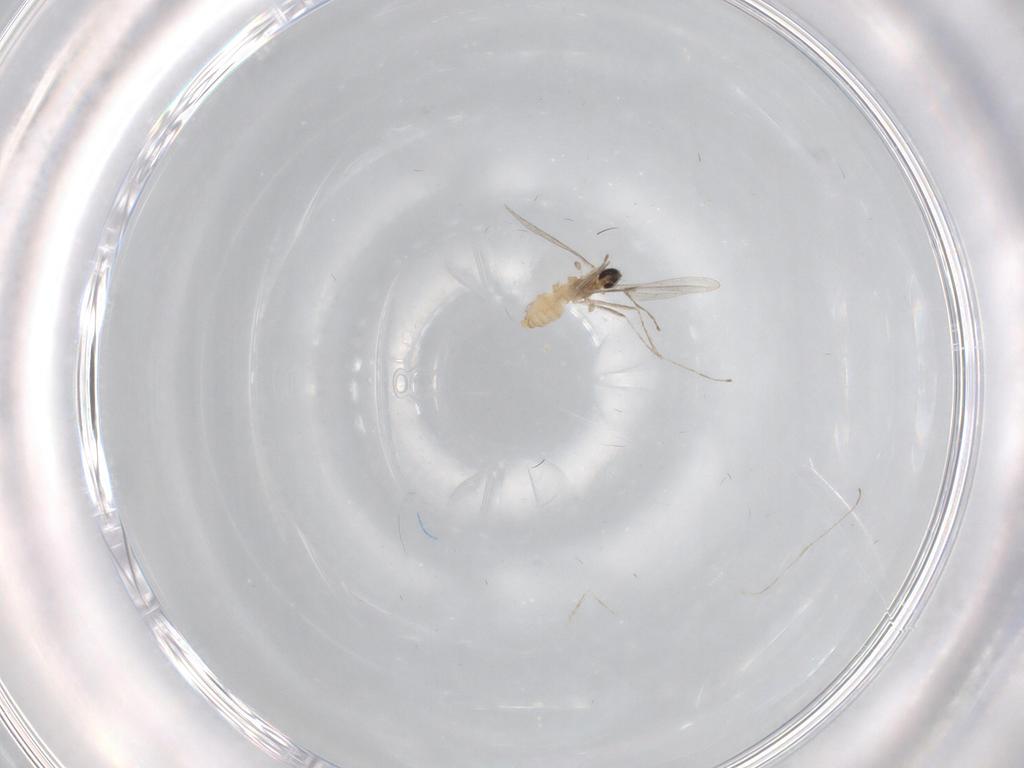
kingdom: Animalia
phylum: Arthropoda
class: Insecta
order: Diptera
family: Cecidomyiidae
